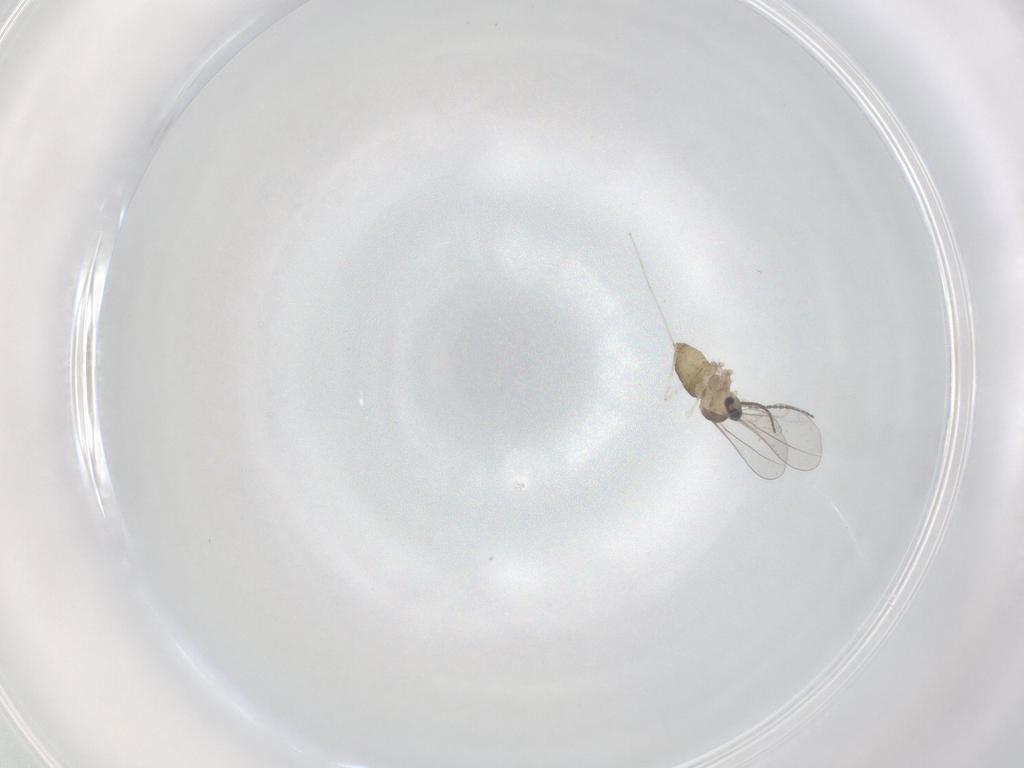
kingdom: Animalia
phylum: Arthropoda
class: Insecta
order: Diptera
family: Cecidomyiidae
